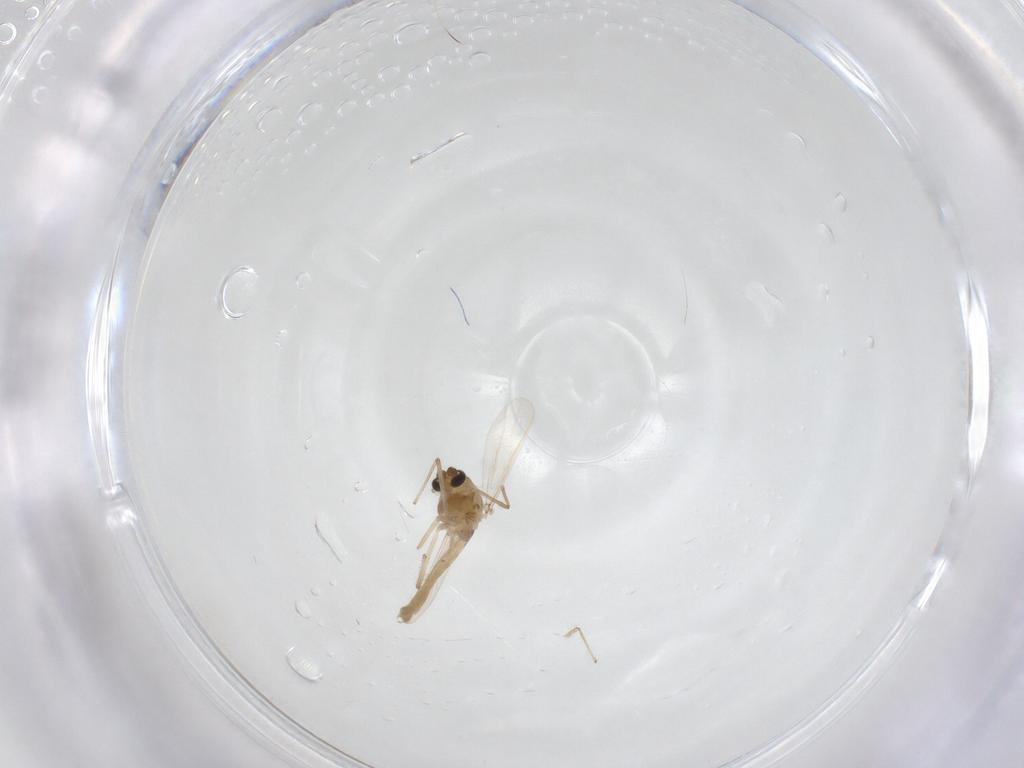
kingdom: Animalia
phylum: Arthropoda
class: Insecta
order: Diptera
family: Chironomidae
